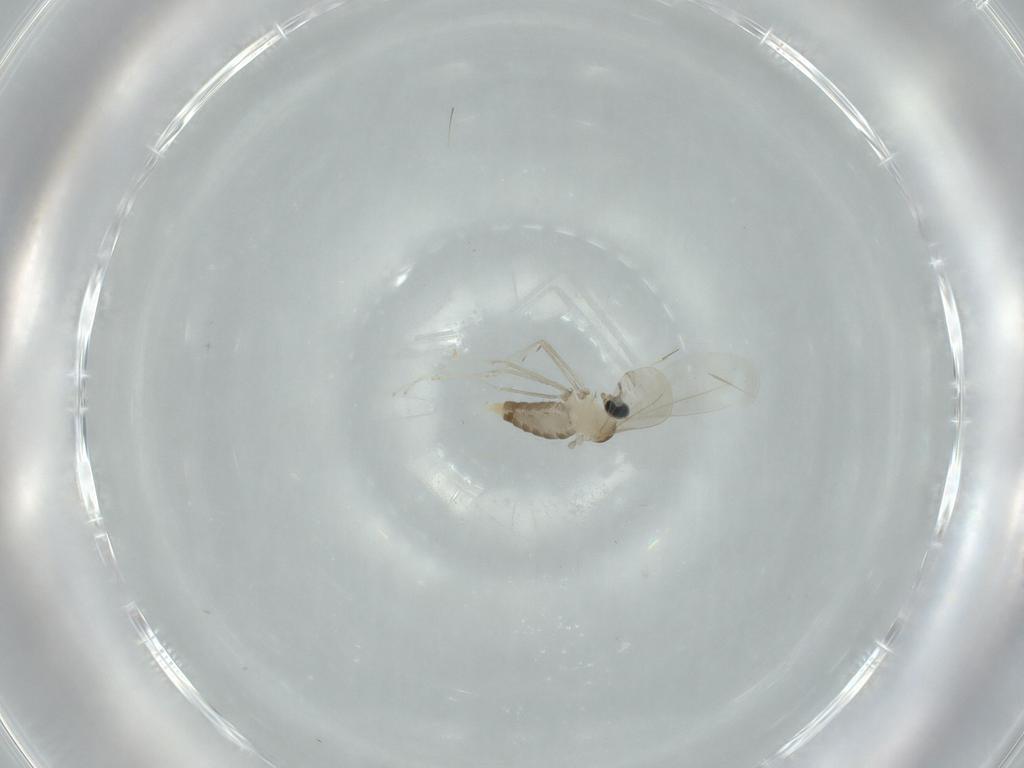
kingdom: Animalia
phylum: Arthropoda
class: Insecta
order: Diptera
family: Cecidomyiidae
